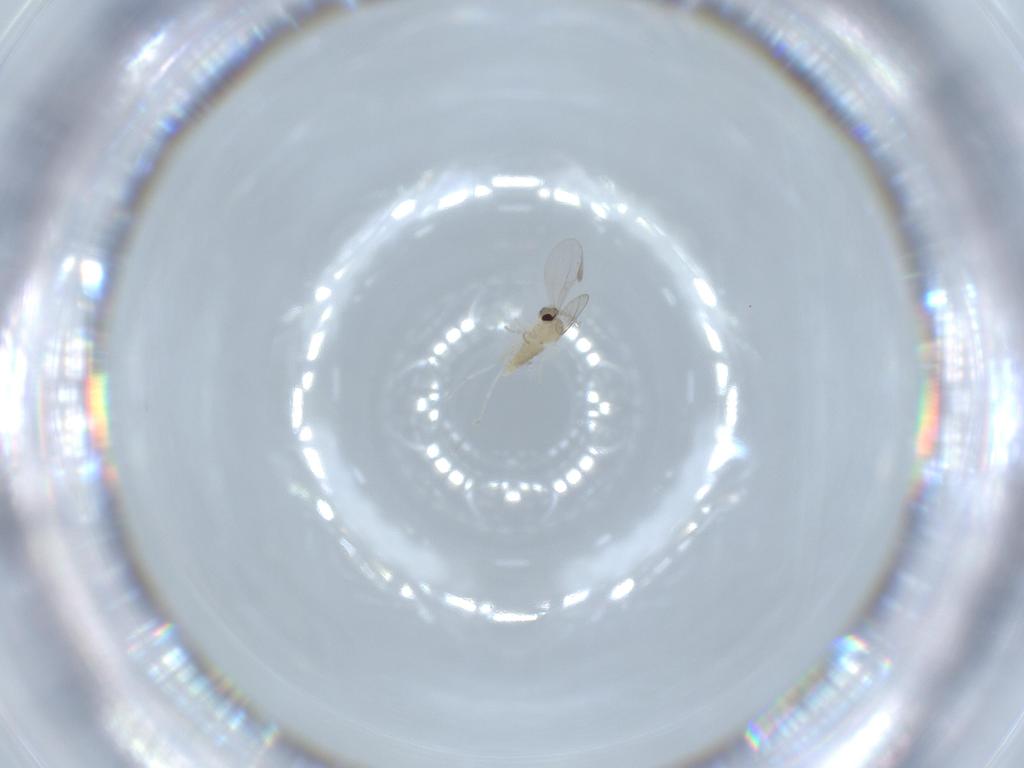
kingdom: Animalia
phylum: Arthropoda
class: Insecta
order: Diptera
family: Cecidomyiidae
